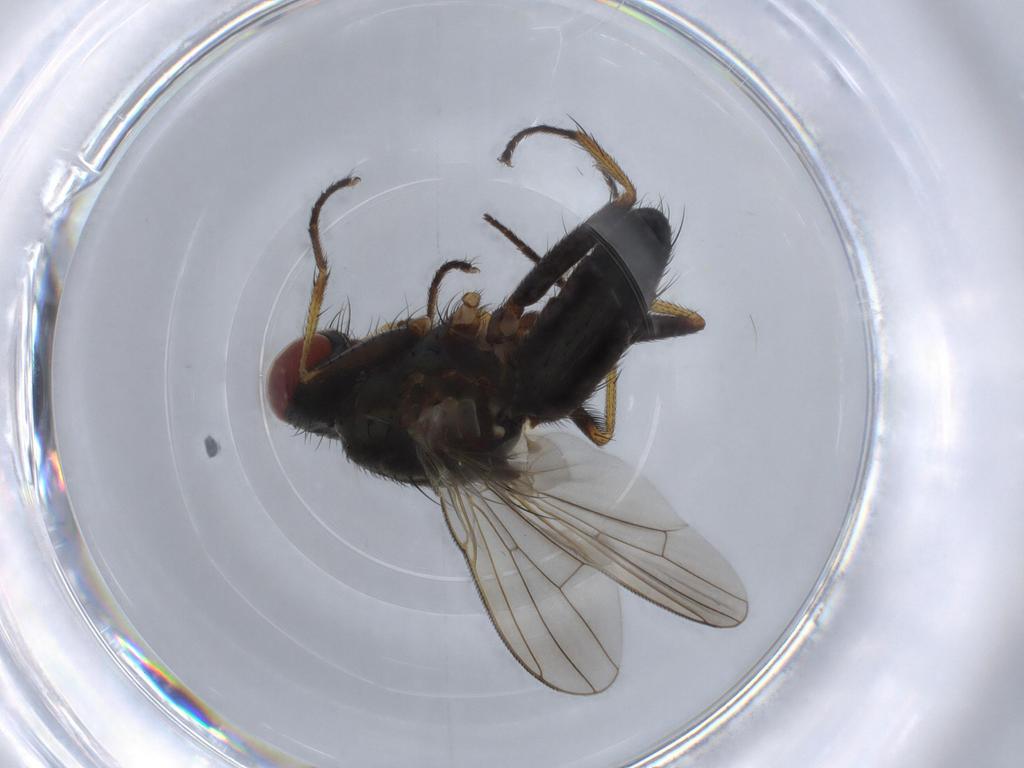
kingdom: Animalia
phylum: Arthropoda
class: Insecta
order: Diptera
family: Muscidae
